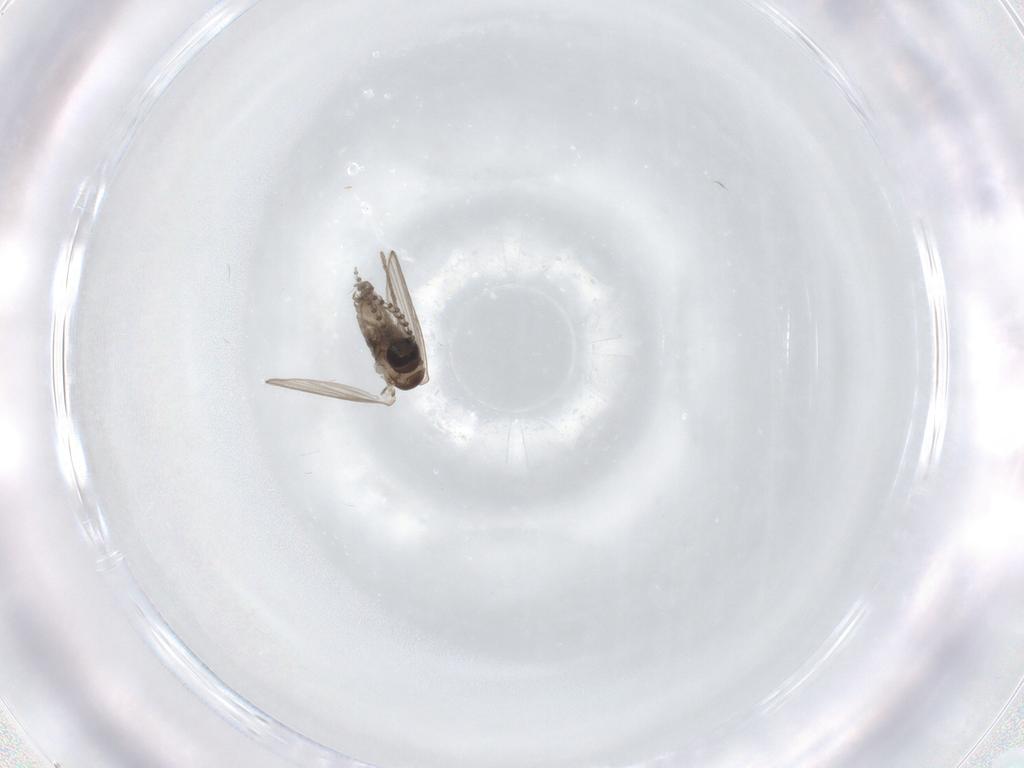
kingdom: Animalia
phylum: Arthropoda
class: Insecta
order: Diptera
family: Psychodidae
